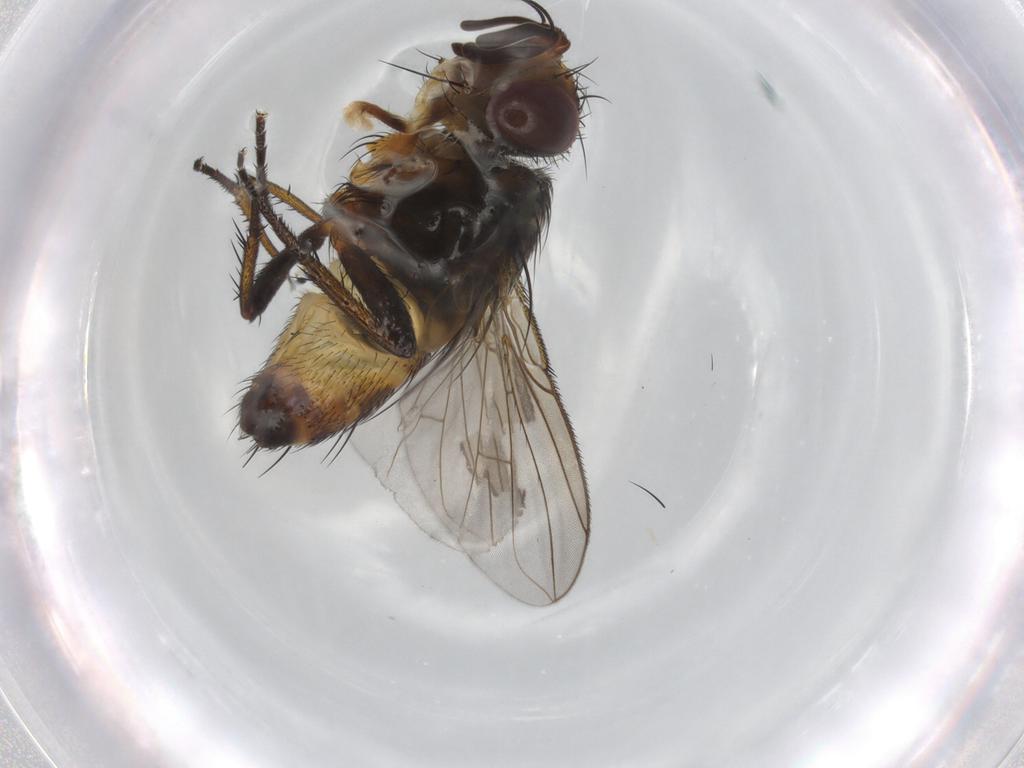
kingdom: Animalia
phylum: Arthropoda
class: Insecta
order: Diptera
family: Tachinidae
